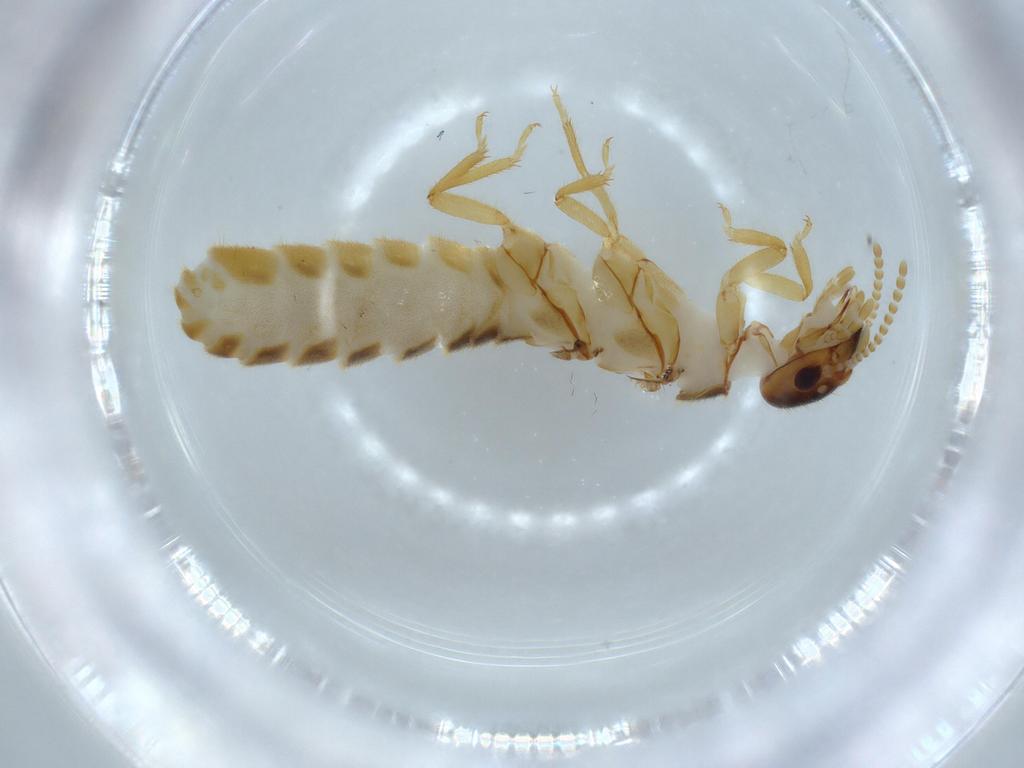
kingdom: Animalia
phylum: Arthropoda
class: Insecta
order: Blattodea
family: Termitidae
